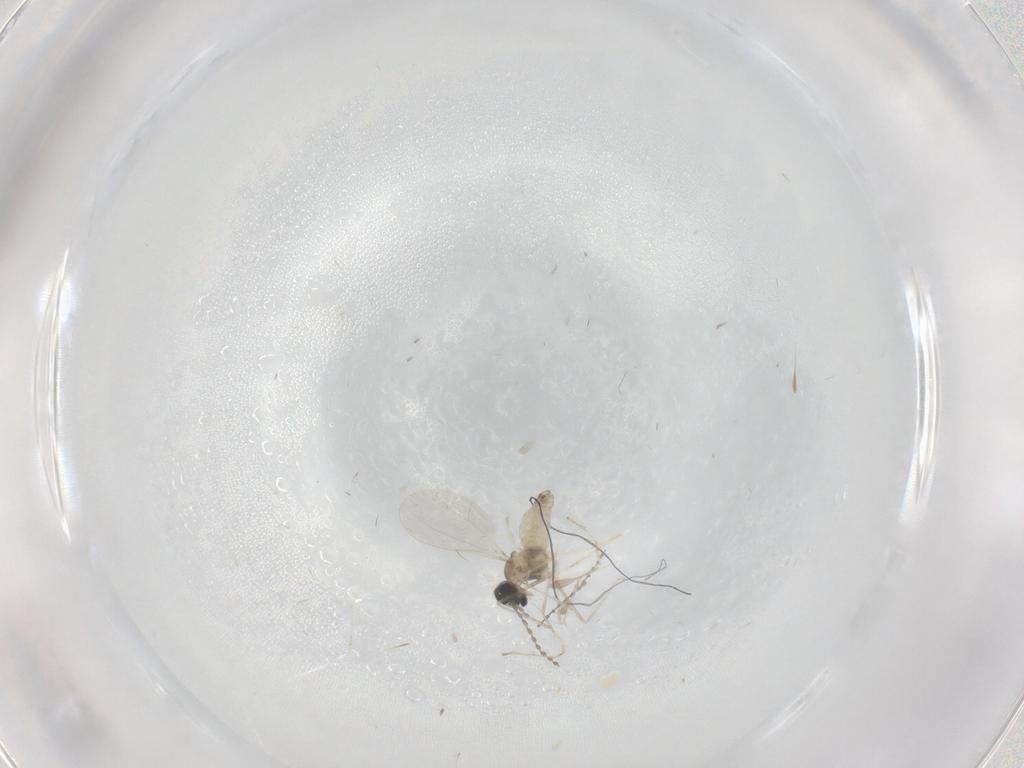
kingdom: Animalia
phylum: Arthropoda
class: Insecta
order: Diptera
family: Cecidomyiidae
